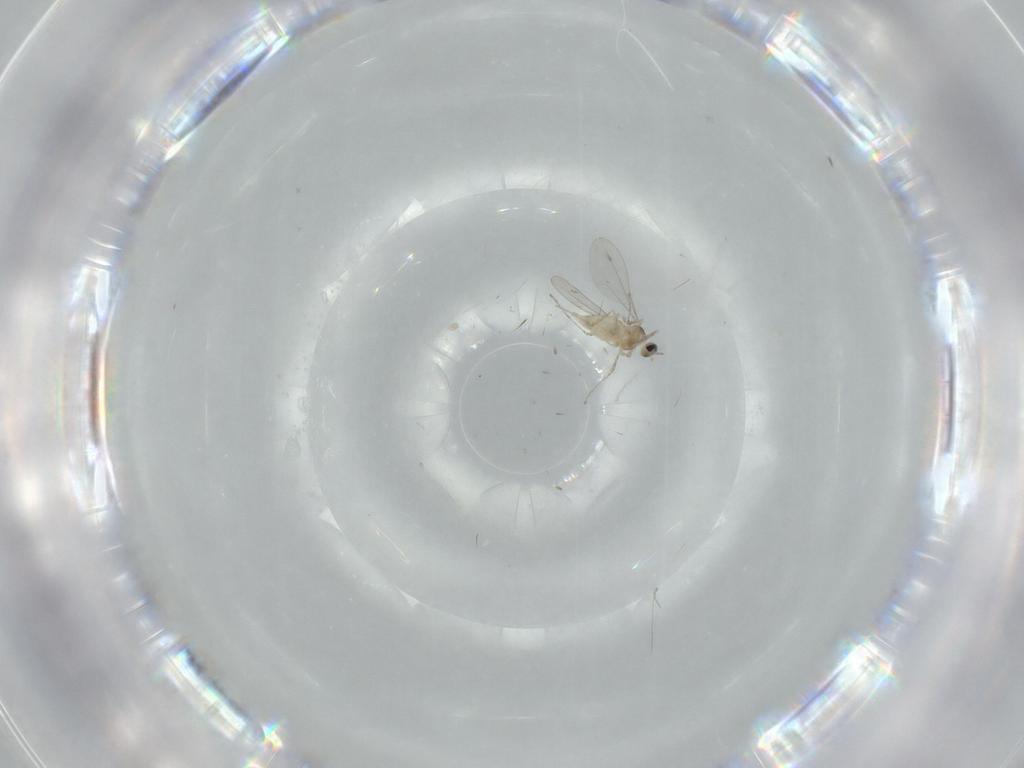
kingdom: Animalia
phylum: Arthropoda
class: Insecta
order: Diptera
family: Cecidomyiidae
